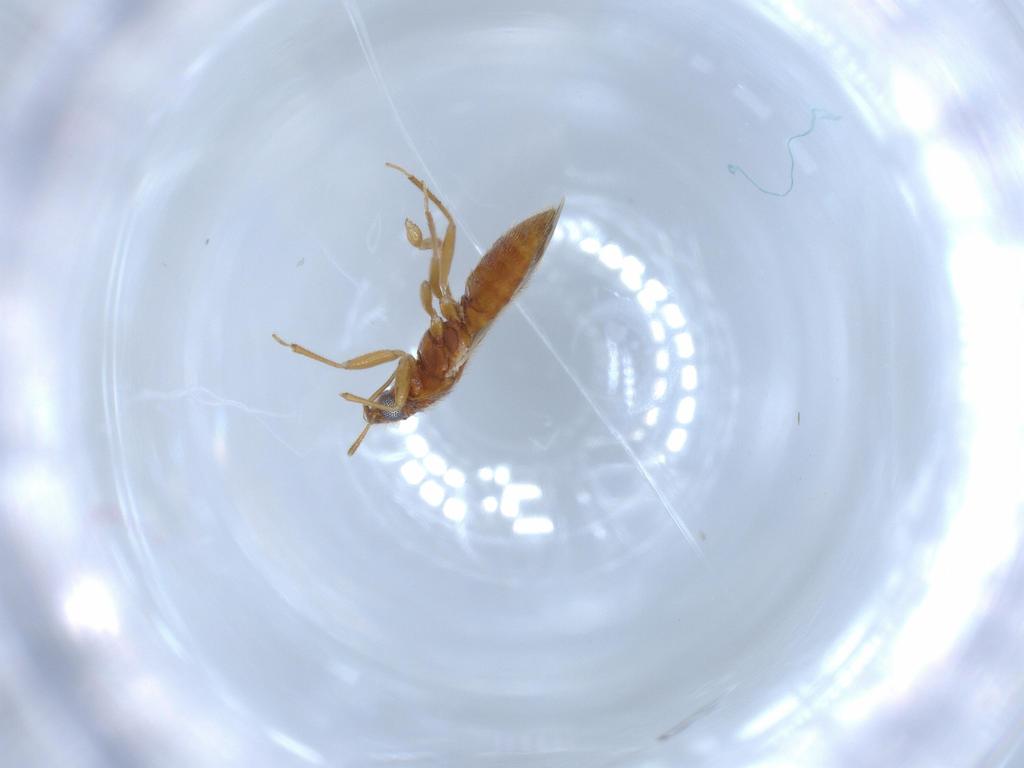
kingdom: Animalia
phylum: Arthropoda
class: Insecta
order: Hemiptera
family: Anthocoridae
